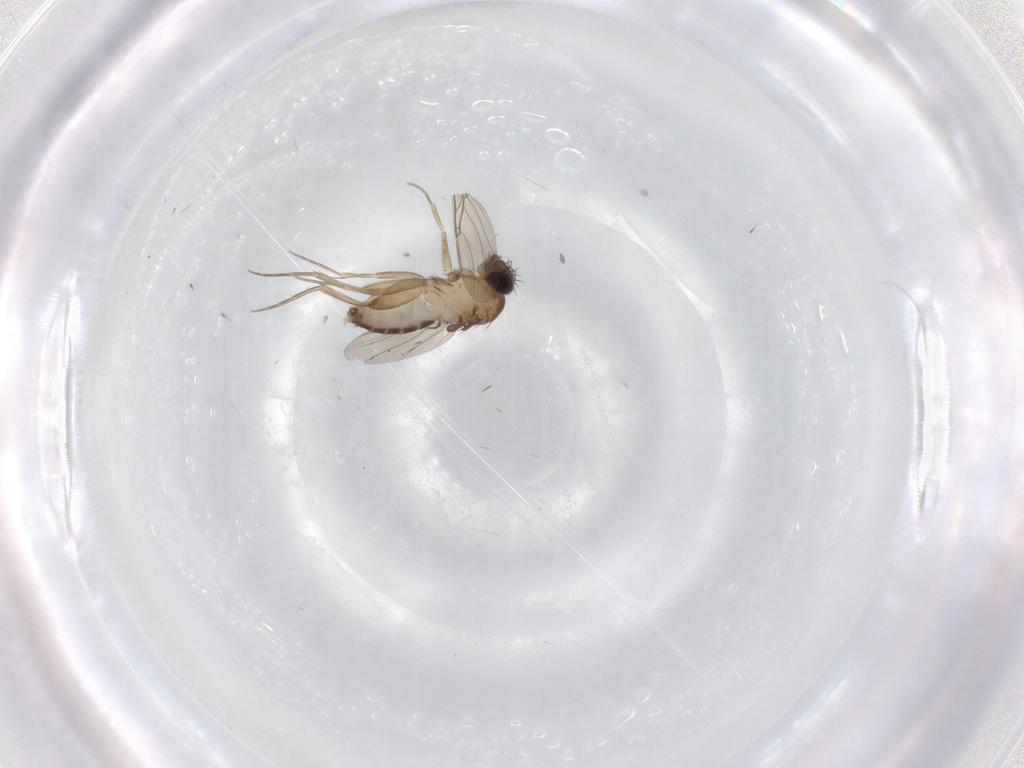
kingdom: Animalia
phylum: Arthropoda
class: Insecta
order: Diptera
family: Phoridae
